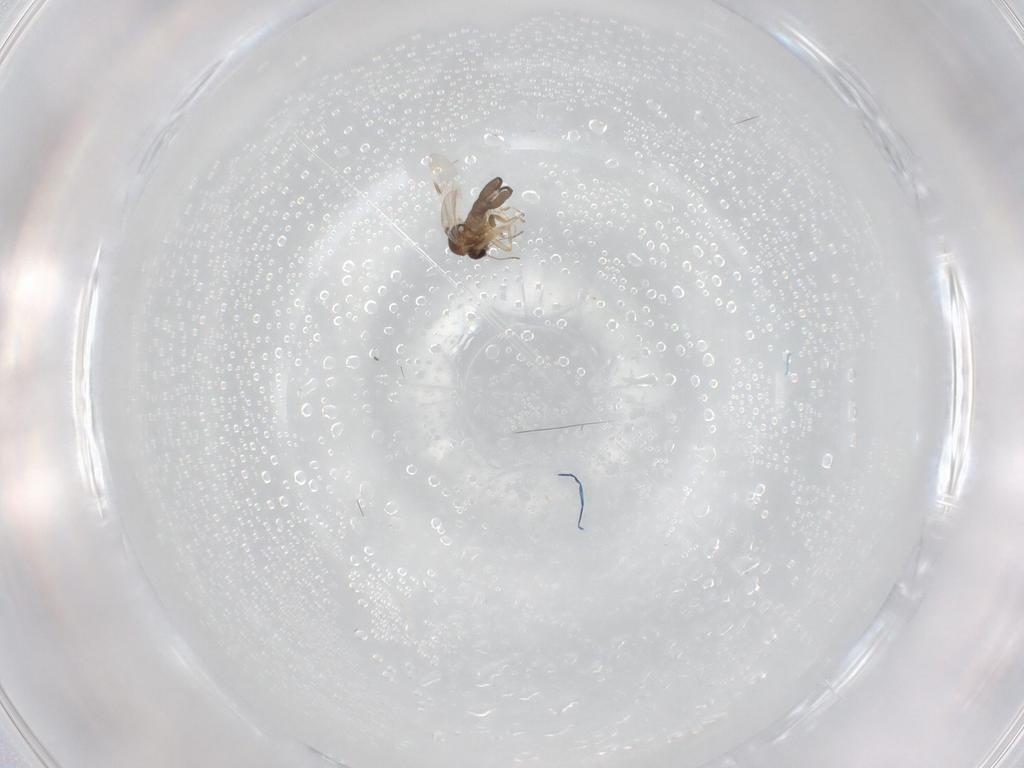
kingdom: Animalia
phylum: Arthropoda
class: Insecta
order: Diptera
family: Ceratopogonidae
